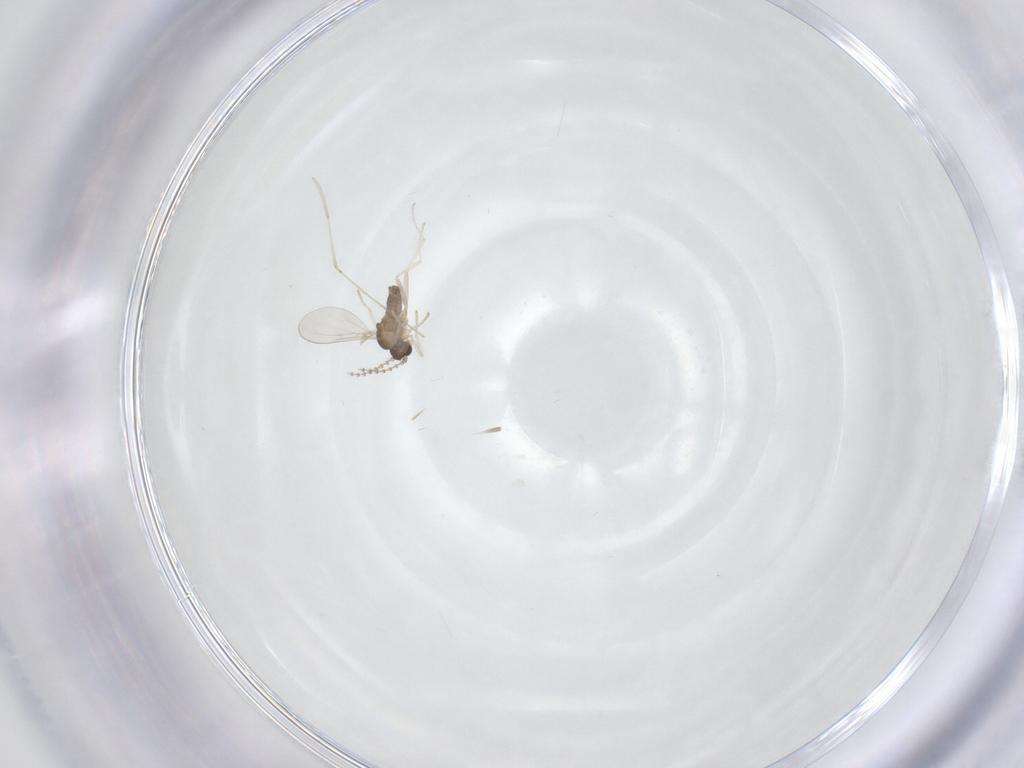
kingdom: Animalia
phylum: Arthropoda
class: Insecta
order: Diptera
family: Cecidomyiidae
